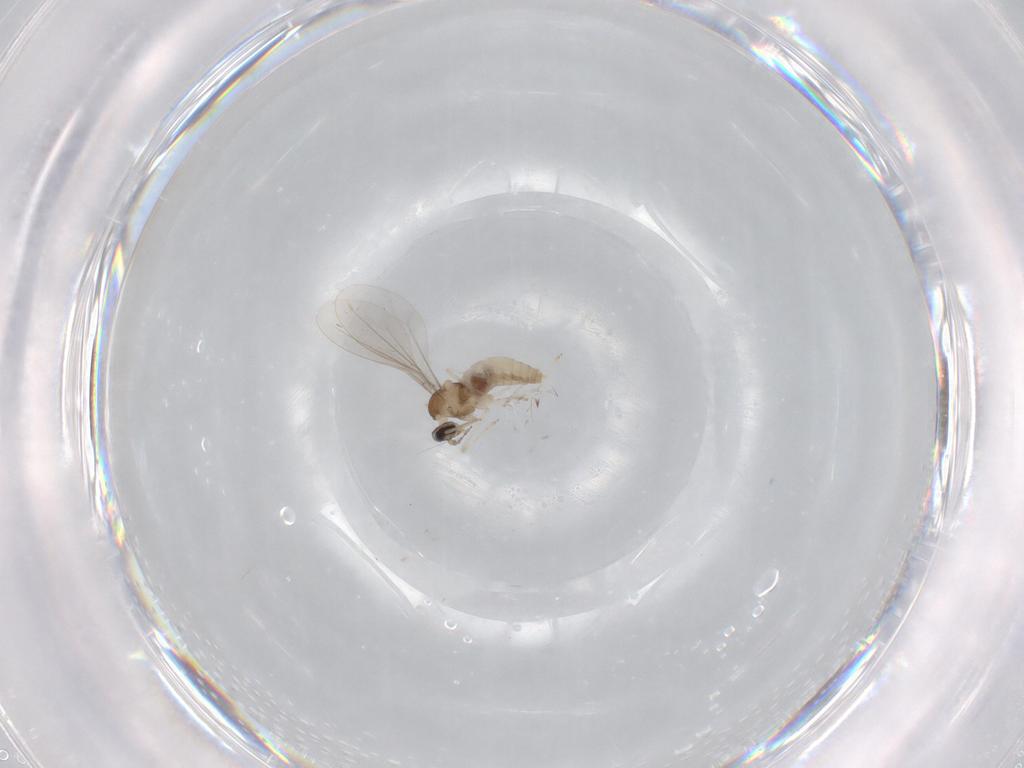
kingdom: Animalia
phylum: Arthropoda
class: Insecta
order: Diptera
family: Cecidomyiidae
